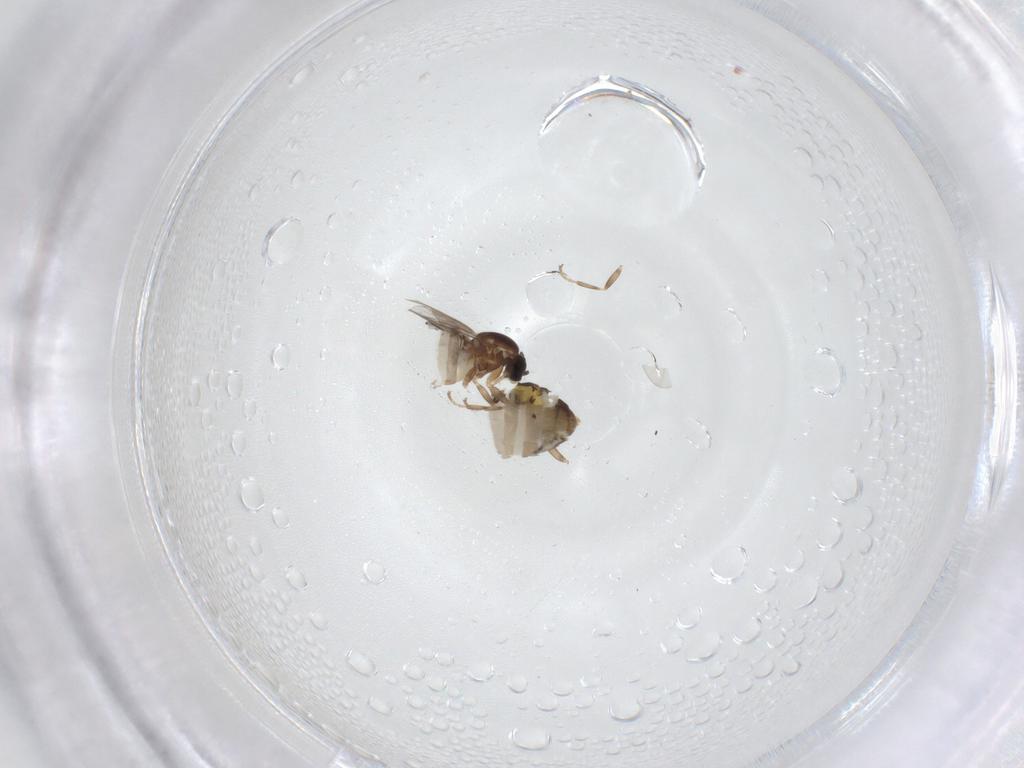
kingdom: Animalia
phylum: Arthropoda
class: Insecta
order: Diptera
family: Scatopsidae
